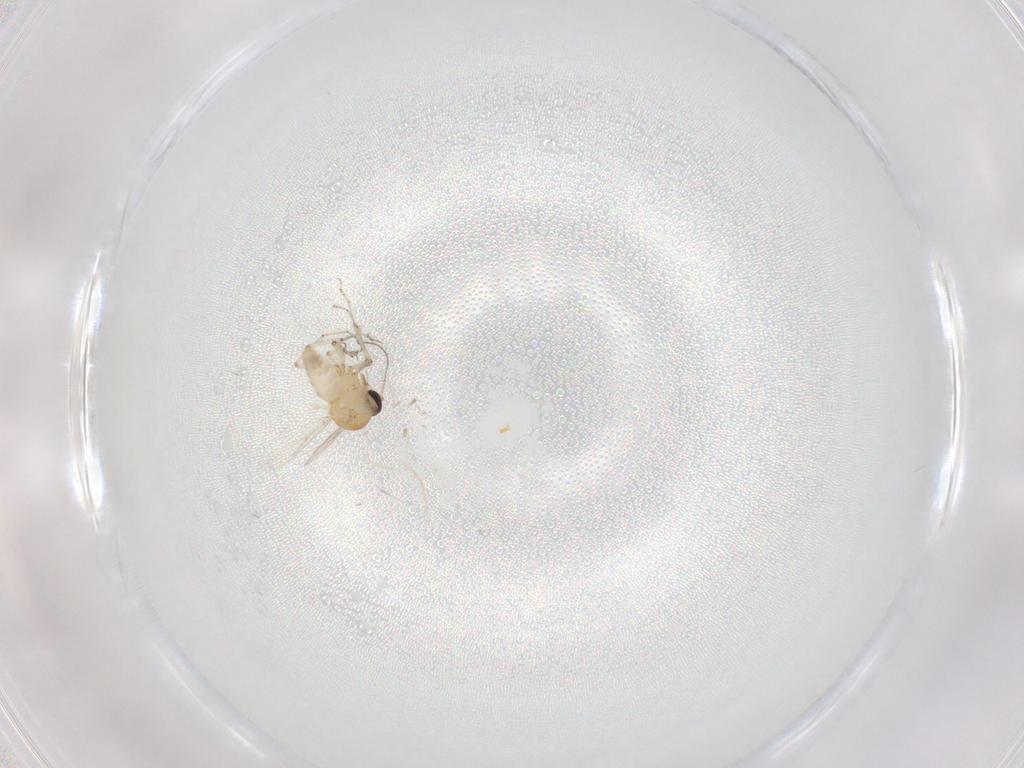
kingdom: Animalia
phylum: Arthropoda
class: Insecta
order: Diptera
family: Ceratopogonidae
